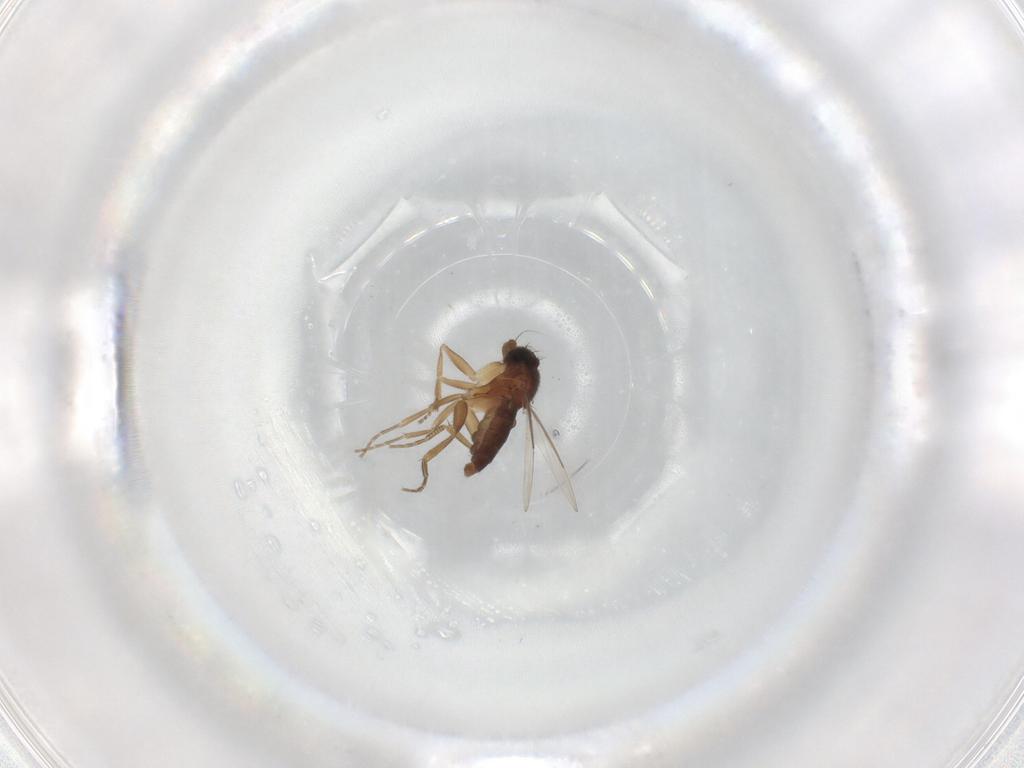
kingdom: Animalia
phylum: Arthropoda
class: Insecta
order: Diptera
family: Phoridae
